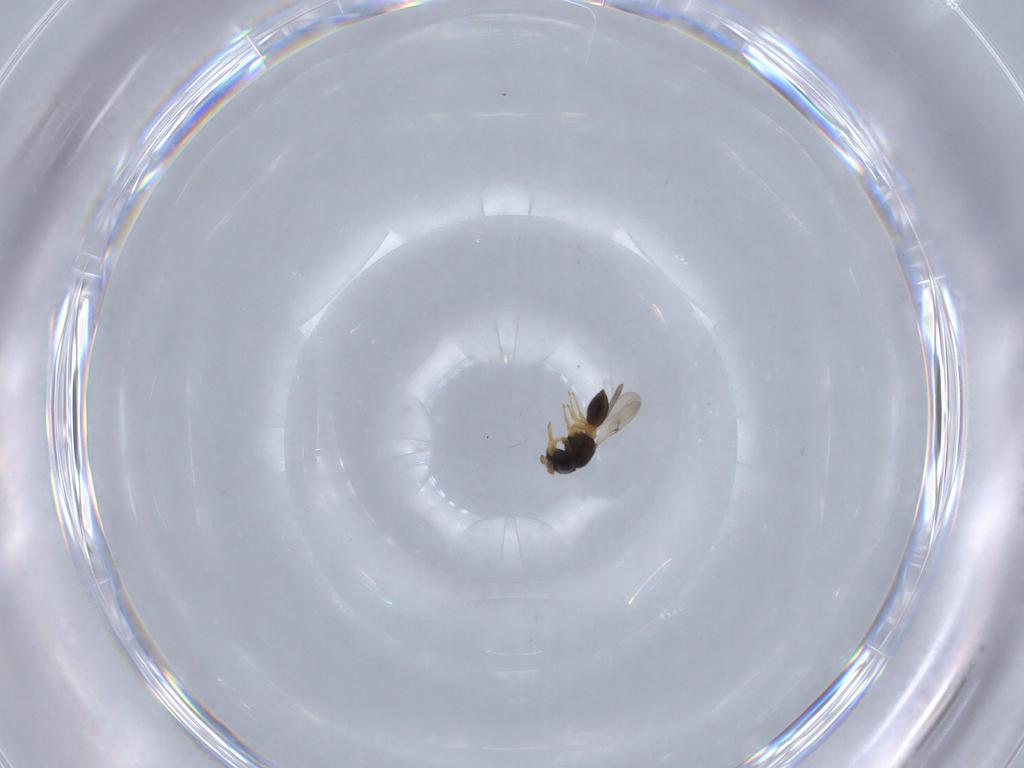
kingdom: Animalia
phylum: Arthropoda
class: Insecta
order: Hymenoptera
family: Scelionidae
